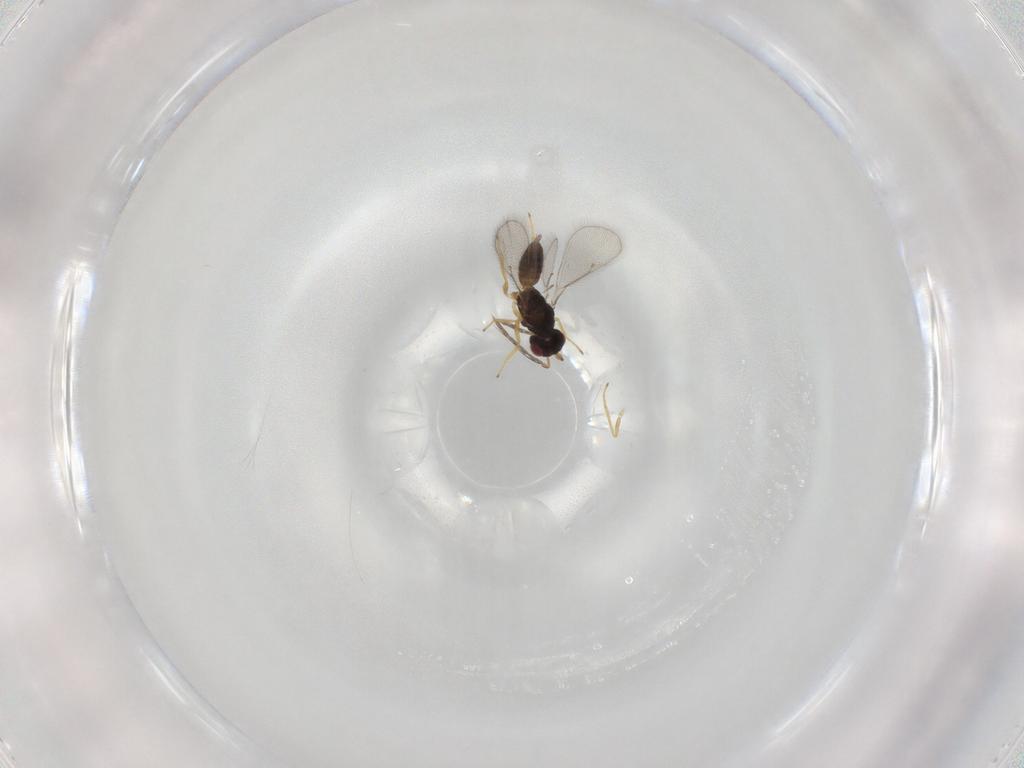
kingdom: Animalia
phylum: Arthropoda
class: Insecta
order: Hymenoptera
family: Eulophidae
